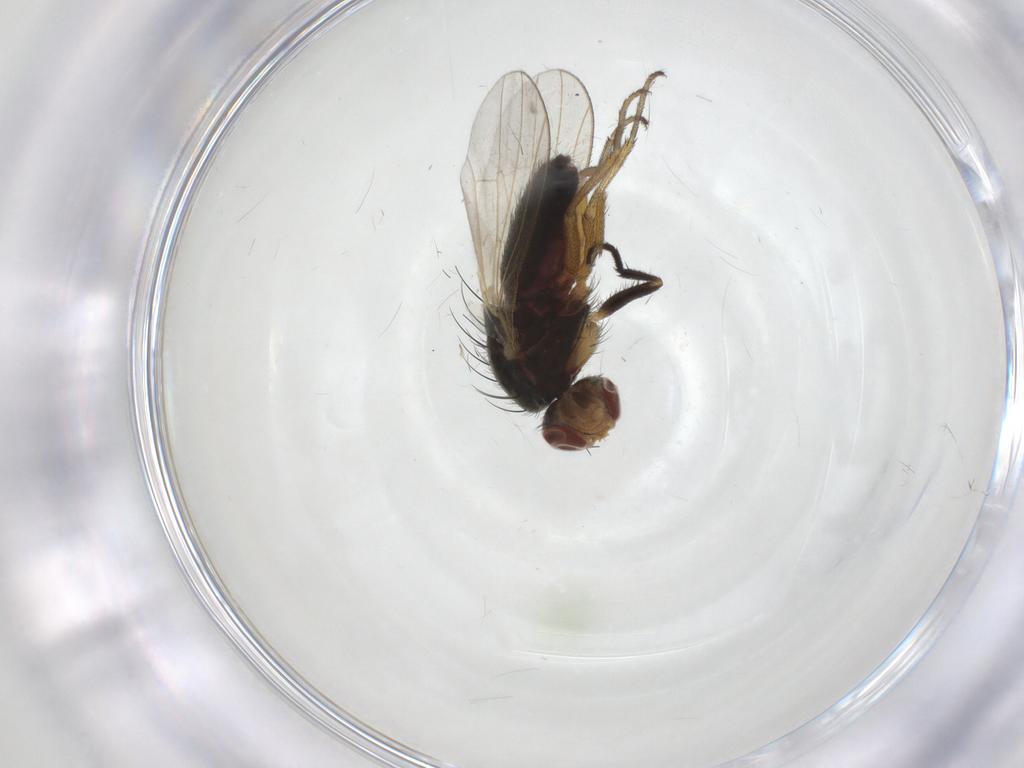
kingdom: Animalia
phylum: Arthropoda
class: Insecta
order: Diptera
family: Heleomyzidae
